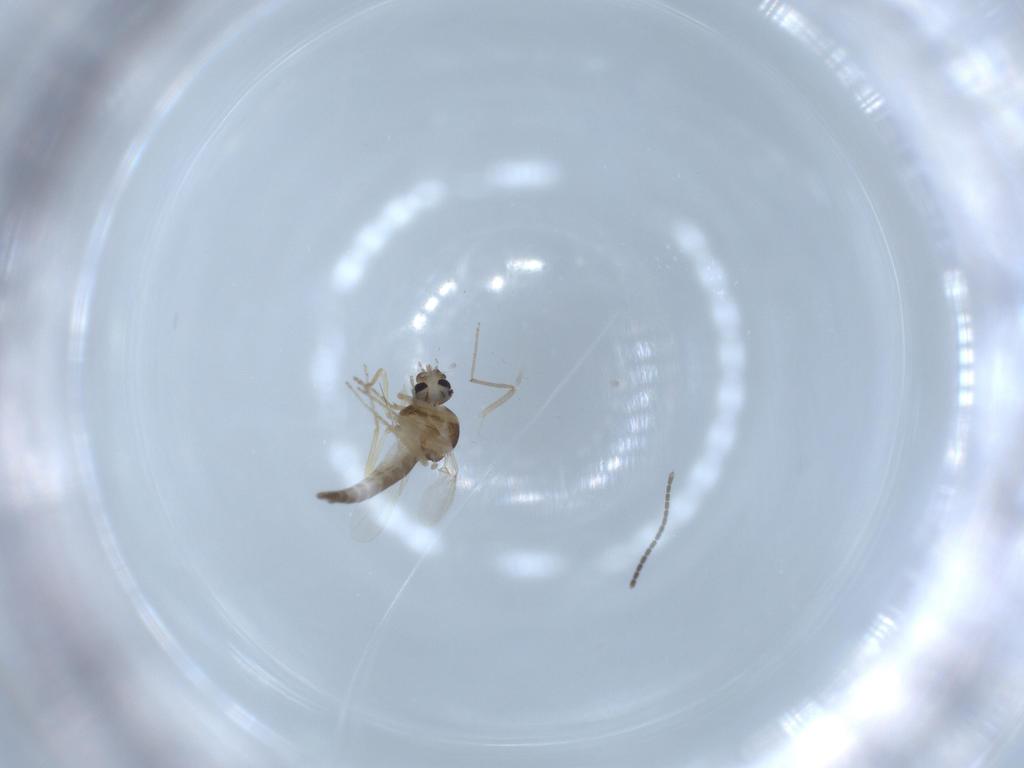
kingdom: Animalia
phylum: Arthropoda
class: Insecta
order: Diptera
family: Ceratopogonidae
